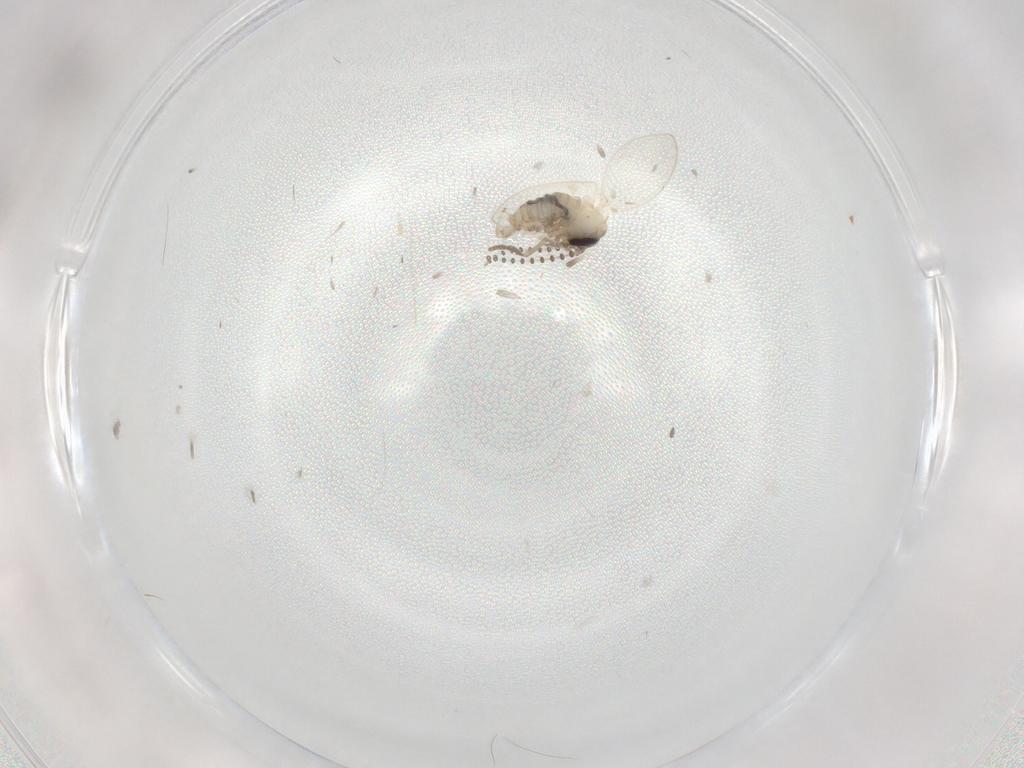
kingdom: Animalia
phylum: Arthropoda
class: Insecta
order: Diptera
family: Psychodidae
